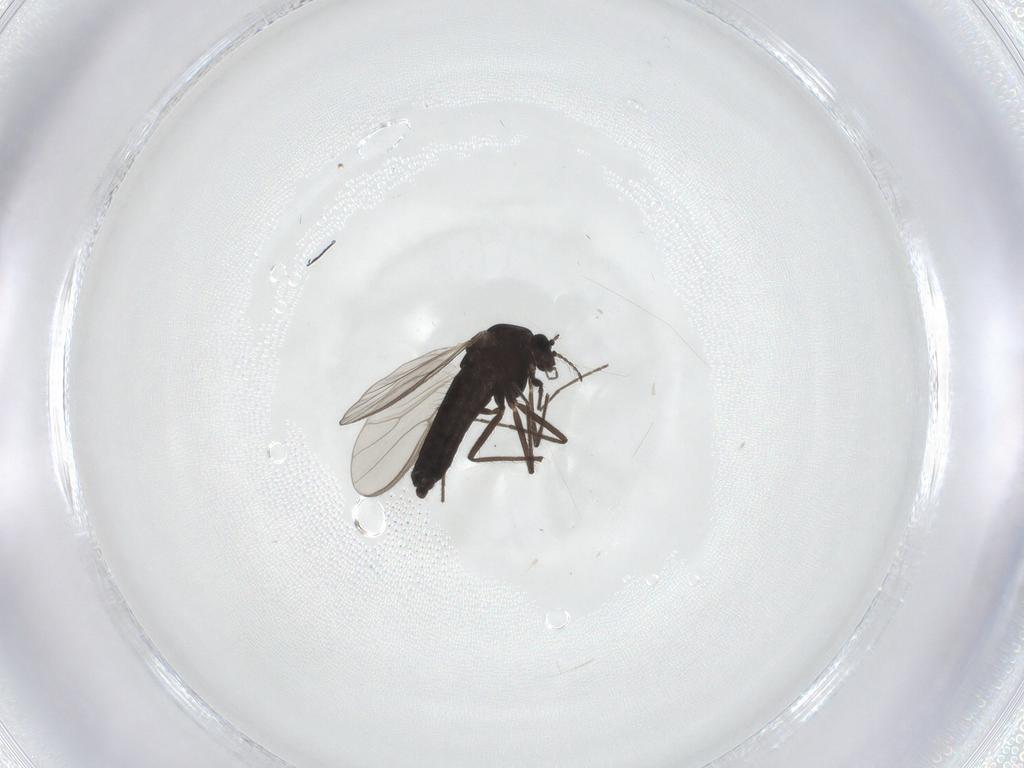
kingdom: Animalia
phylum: Arthropoda
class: Insecta
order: Diptera
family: Chironomidae
